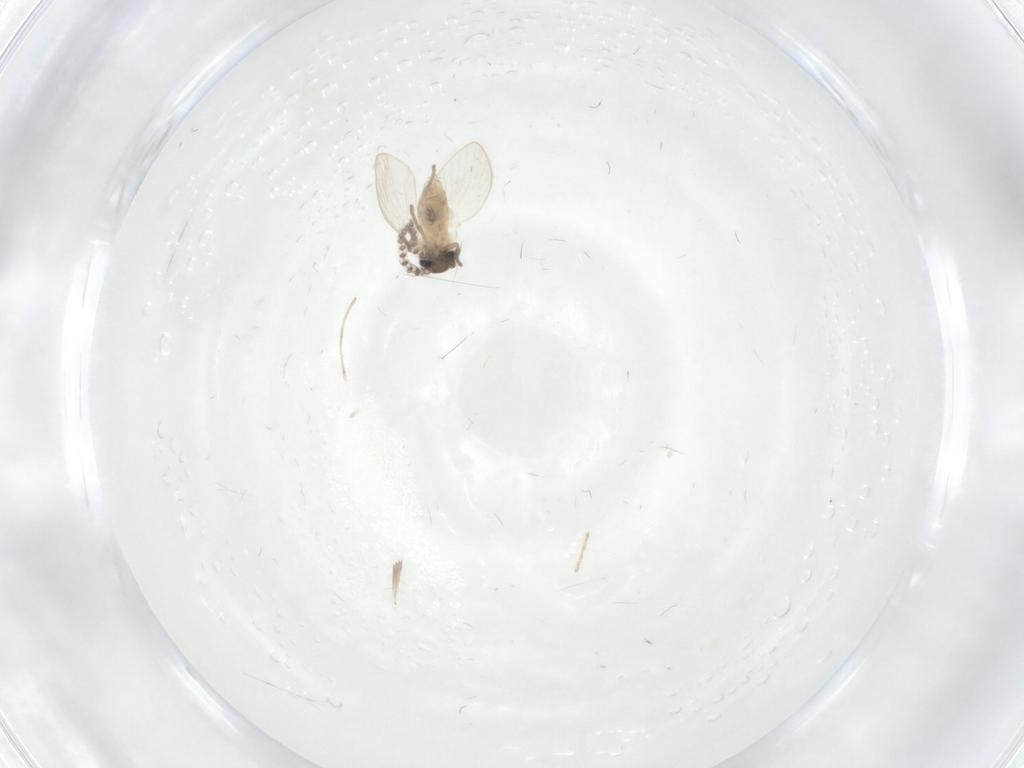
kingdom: Animalia
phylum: Arthropoda
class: Insecta
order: Diptera
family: Psychodidae
